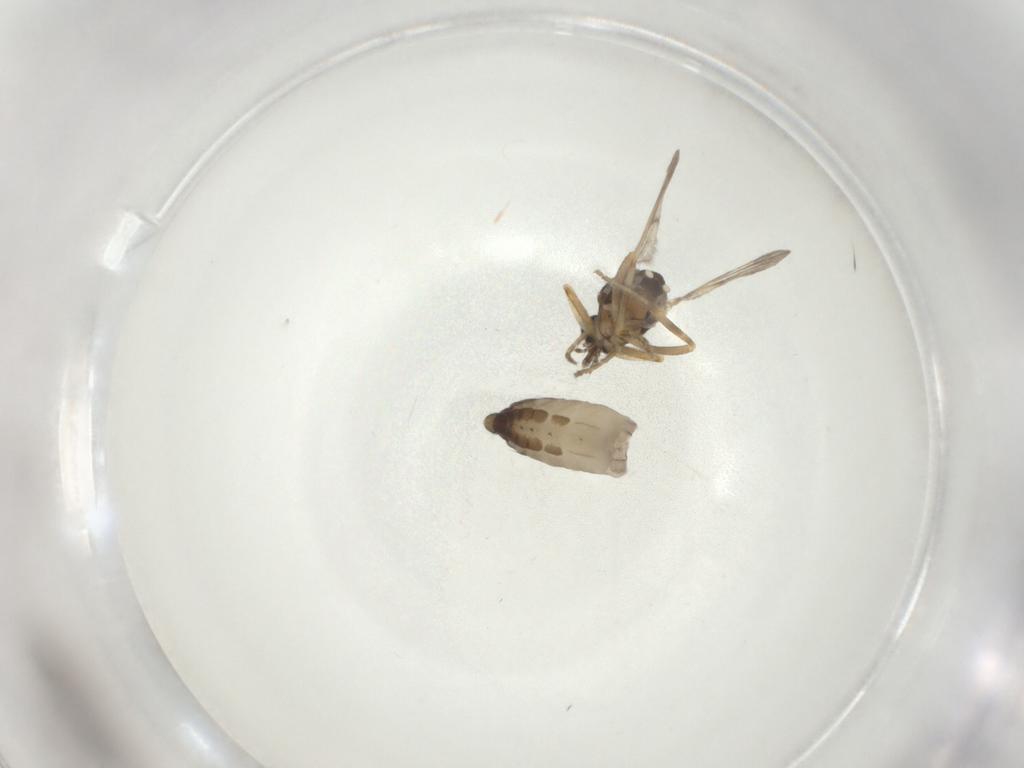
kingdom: Animalia
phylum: Arthropoda
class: Insecta
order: Diptera
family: Ceratopogonidae
